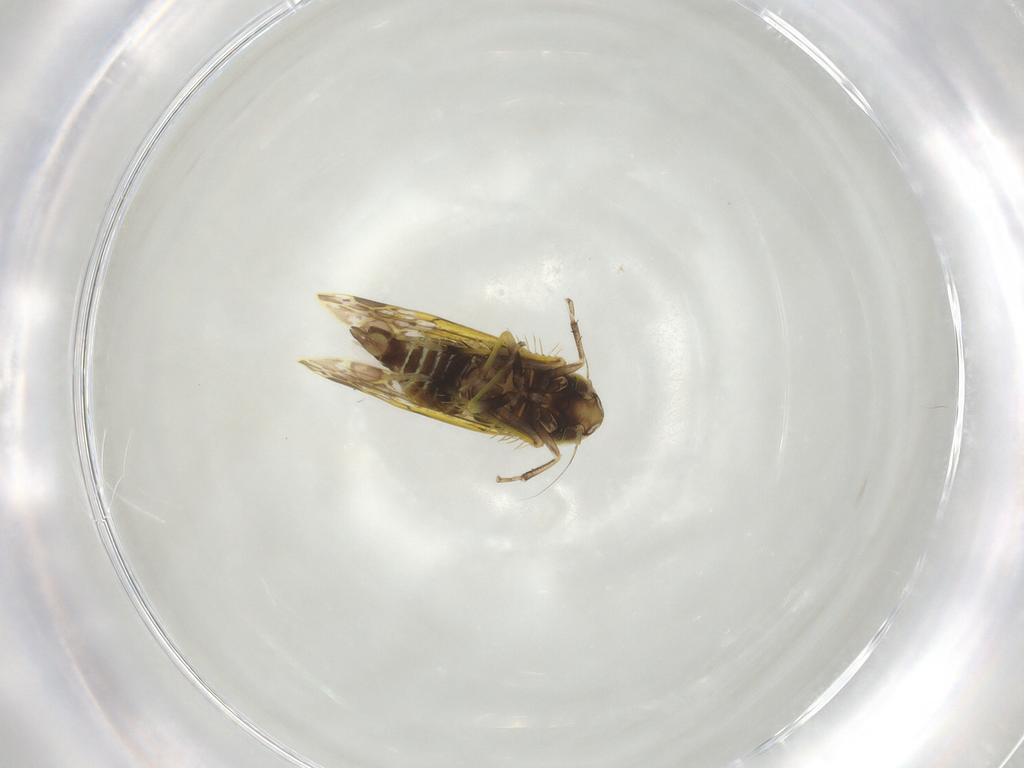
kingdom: Animalia
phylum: Arthropoda
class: Insecta
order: Hemiptera
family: Cicadellidae
